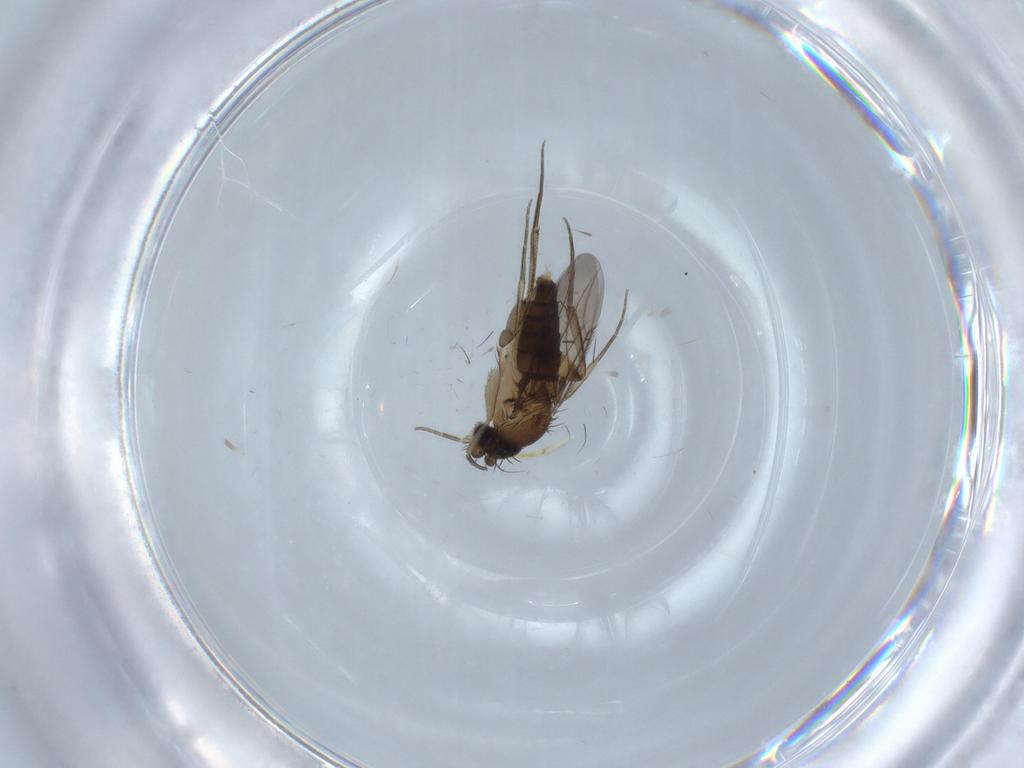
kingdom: Animalia
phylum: Arthropoda
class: Insecta
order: Diptera
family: Phoridae
